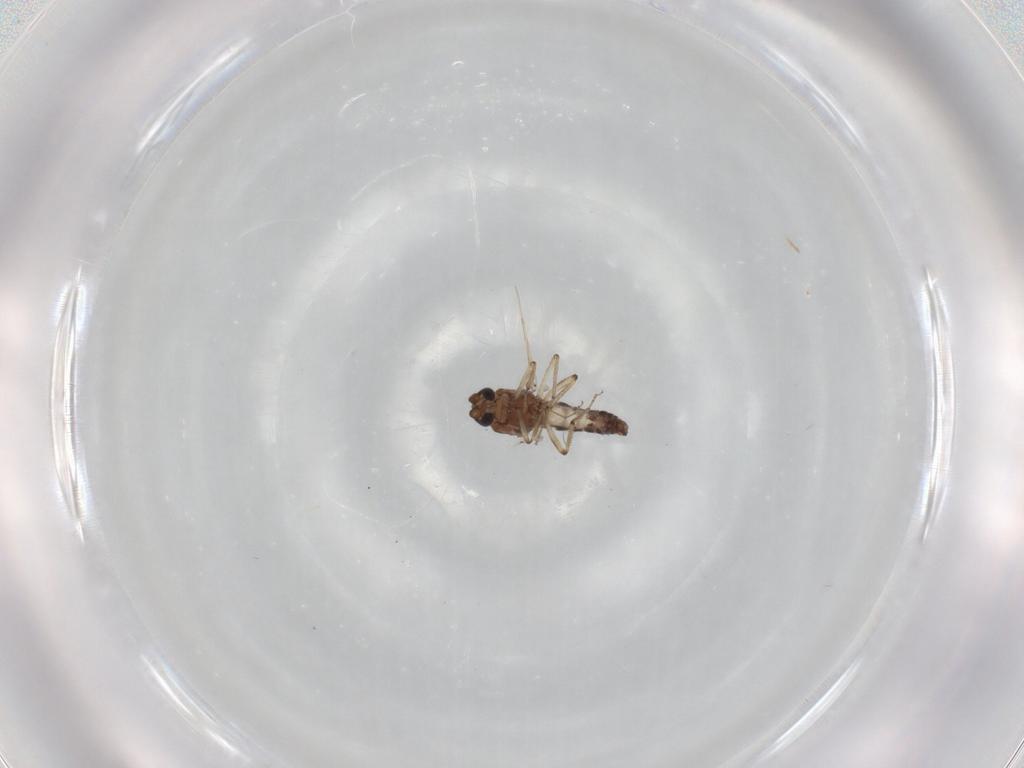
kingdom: Animalia
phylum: Arthropoda
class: Insecta
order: Diptera
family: Ceratopogonidae
